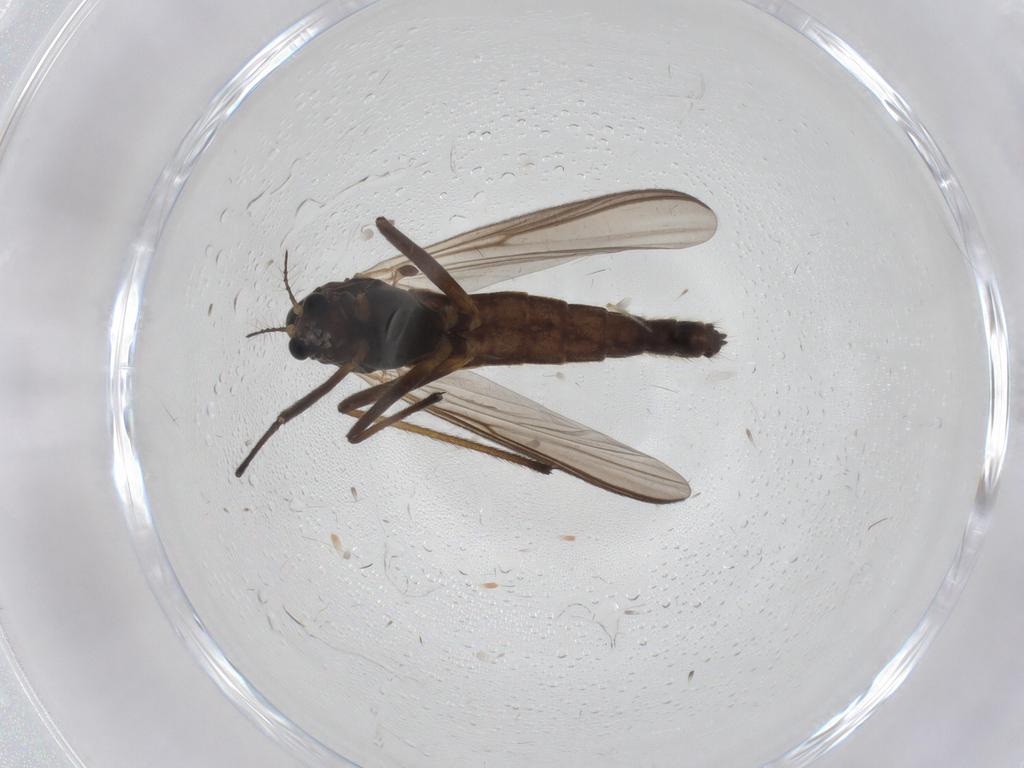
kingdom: Animalia
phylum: Arthropoda
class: Insecta
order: Diptera
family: Chironomidae
